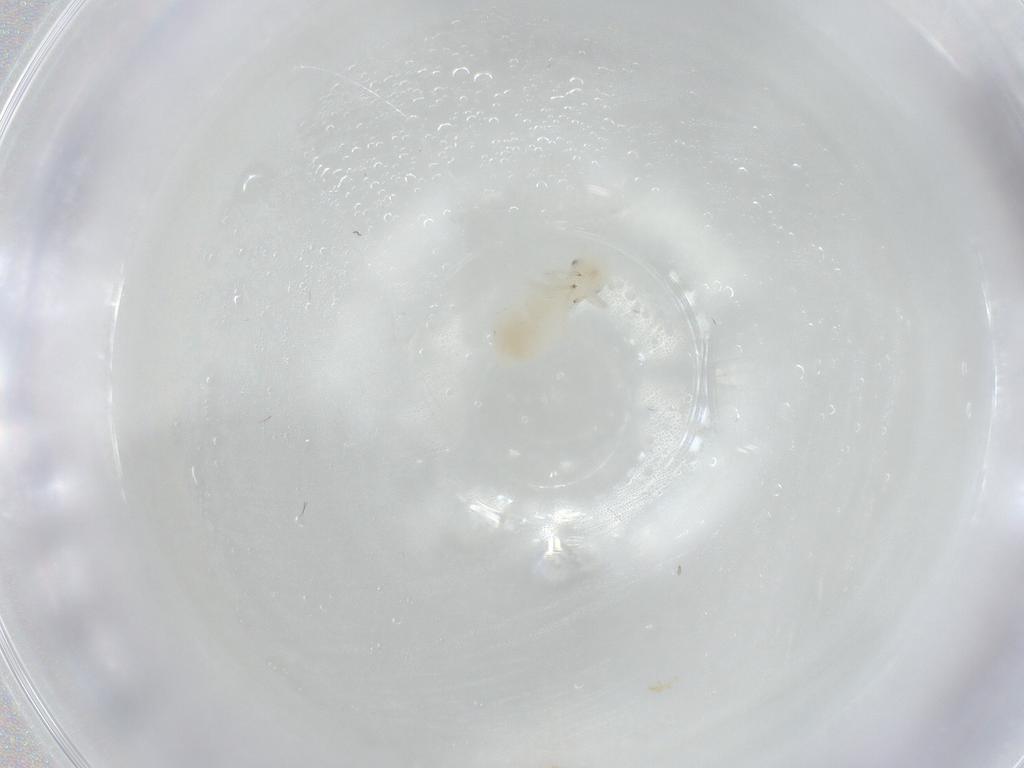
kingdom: Animalia
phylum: Arthropoda
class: Insecta
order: Psocodea
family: Caeciliusidae
